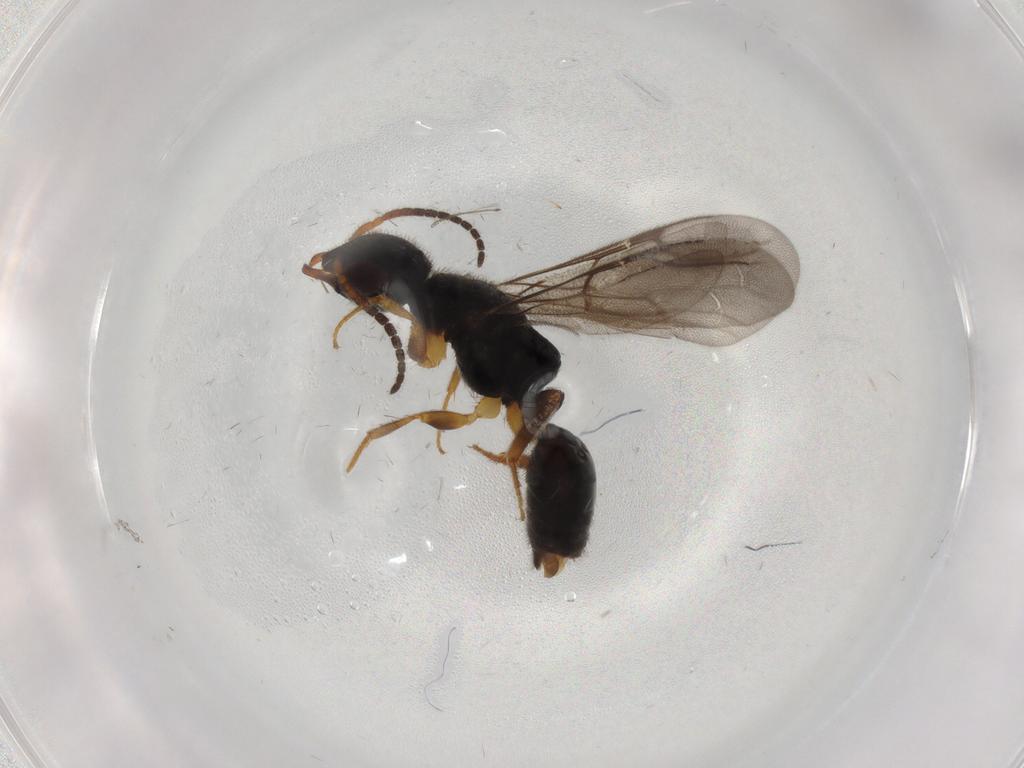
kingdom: Animalia
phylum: Arthropoda
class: Insecta
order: Hymenoptera
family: Bethylidae
